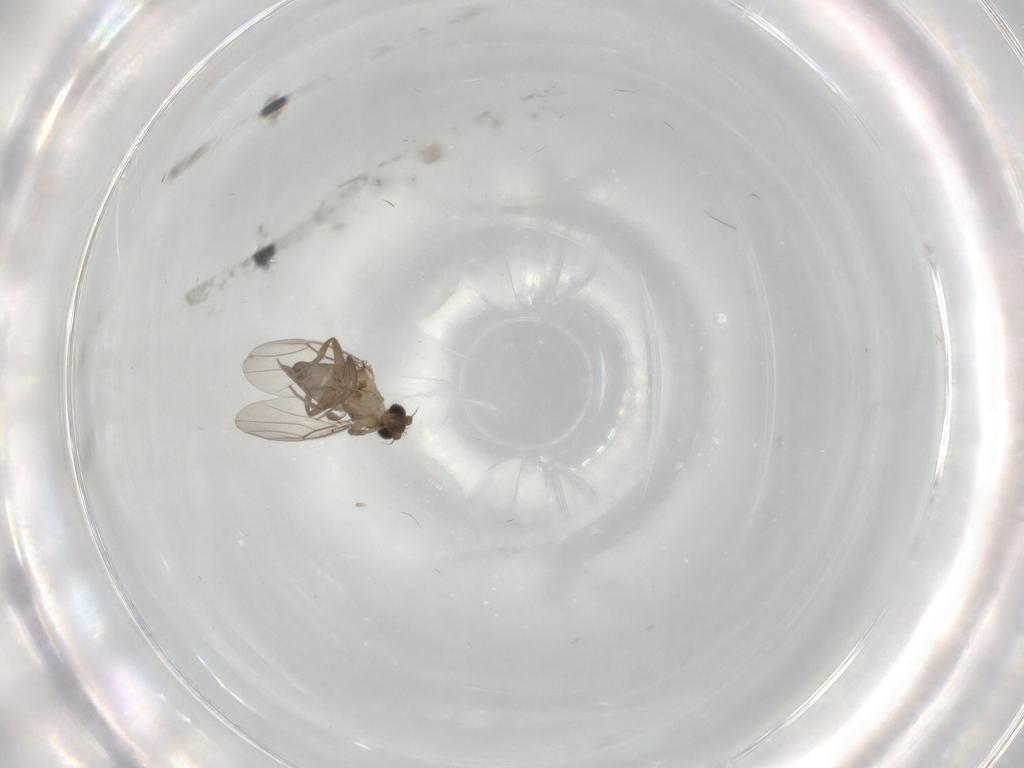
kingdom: Animalia
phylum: Arthropoda
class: Insecta
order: Diptera
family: Phoridae
